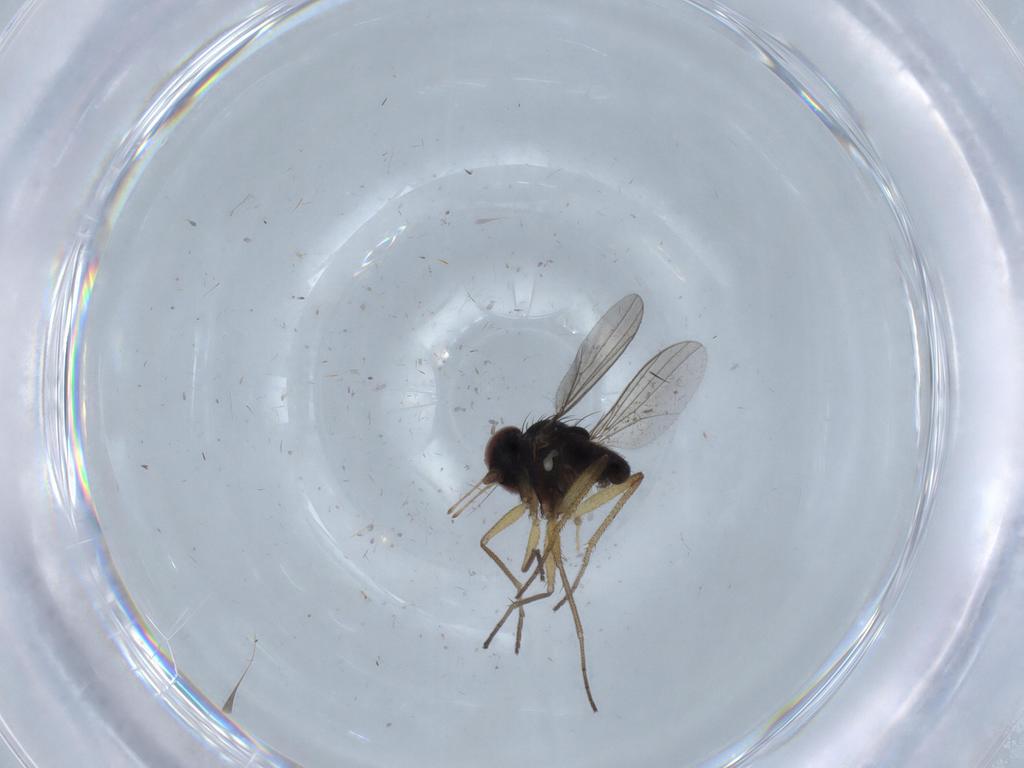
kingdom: Animalia
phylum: Arthropoda
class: Insecta
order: Diptera
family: Dolichopodidae
